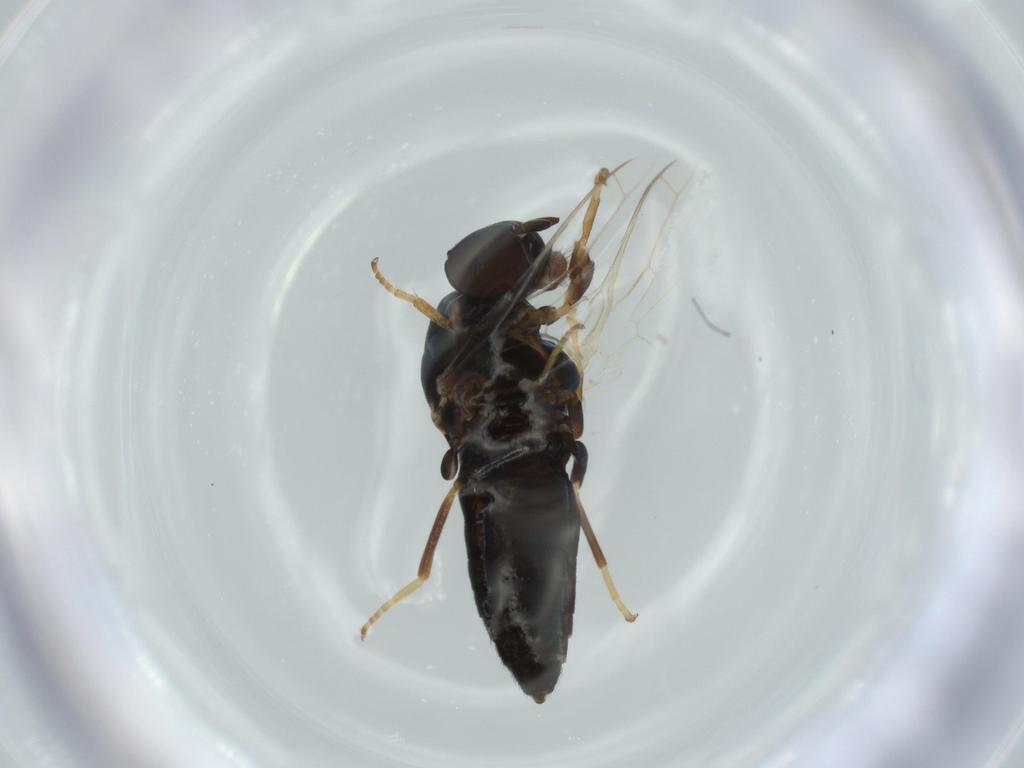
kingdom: Animalia
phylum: Arthropoda
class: Insecta
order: Diptera
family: Scenopinidae
